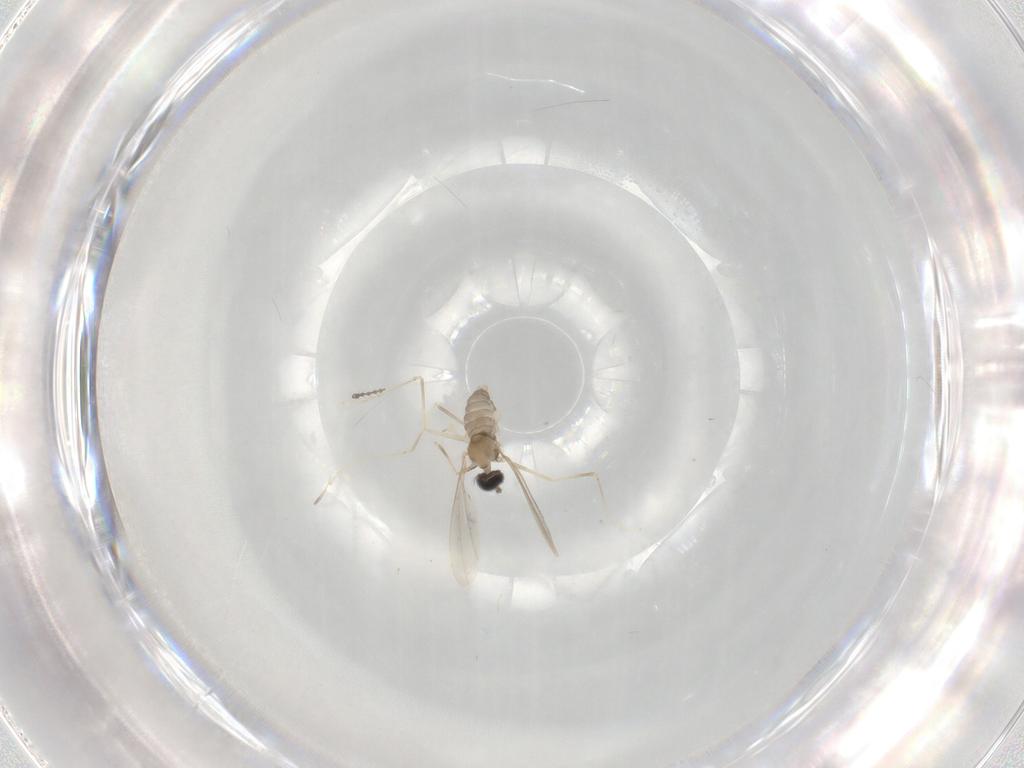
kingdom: Animalia
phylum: Arthropoda
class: Insecta
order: Diptera
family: Cecidomyiidae
